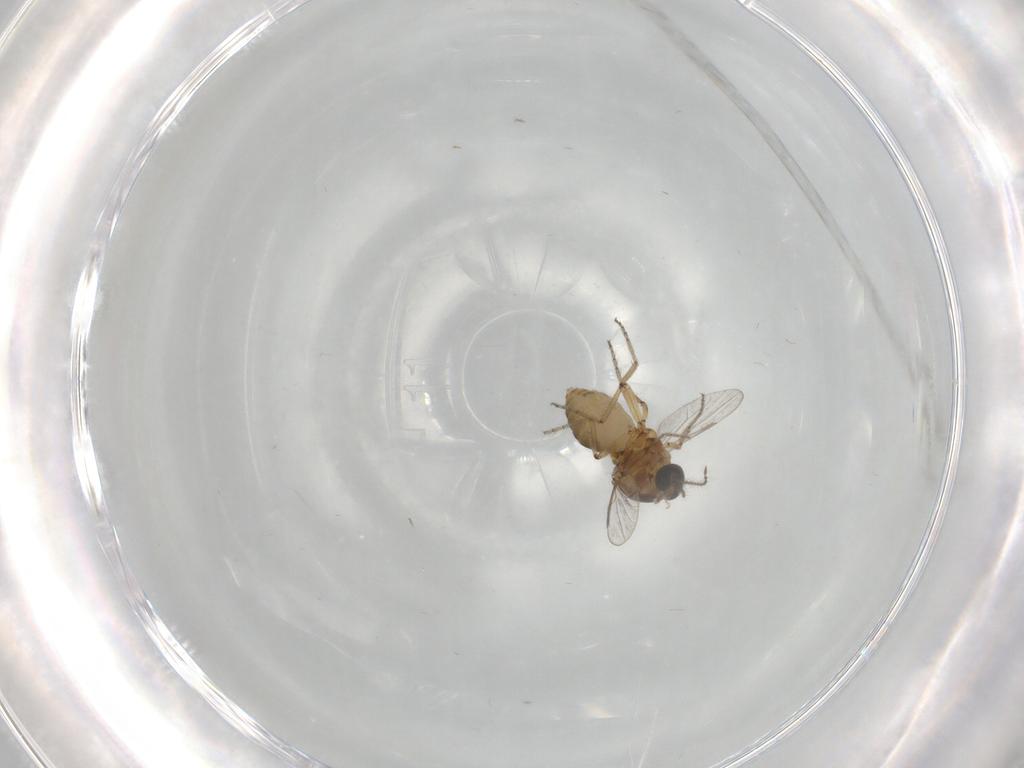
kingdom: Animalia
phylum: Arthropoda
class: Insecta
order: Diptera
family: Ceratopogonidae
